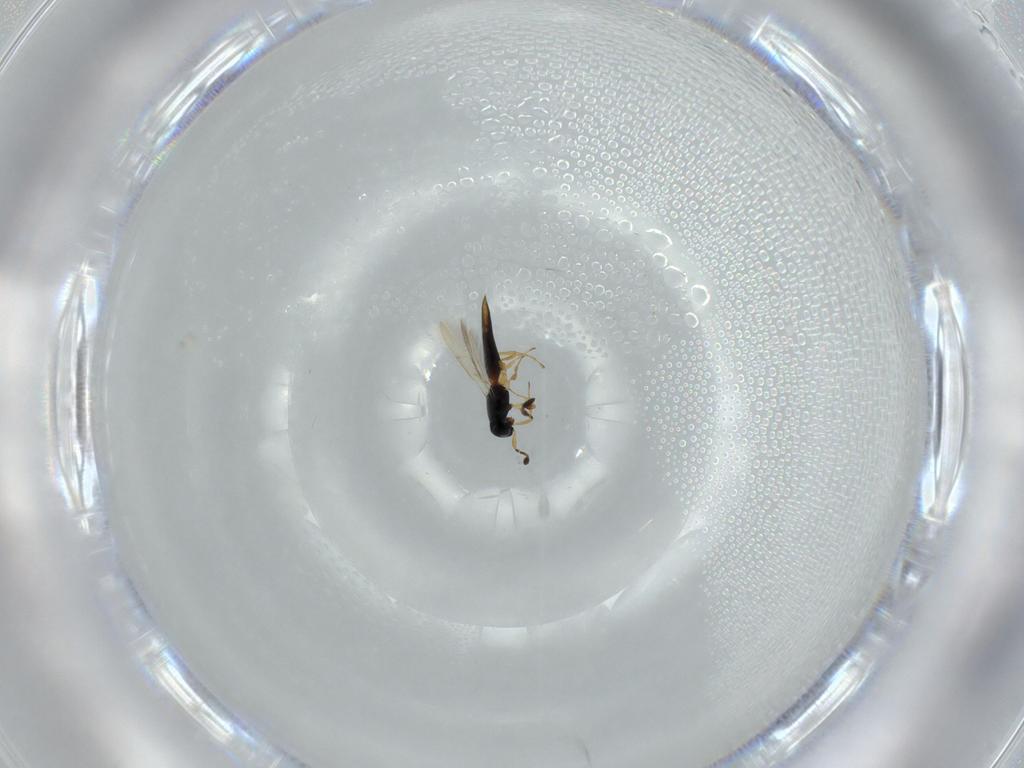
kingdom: Animalia
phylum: Arthropoda
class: Insecta
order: Hymenoptera
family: Scelionidae
